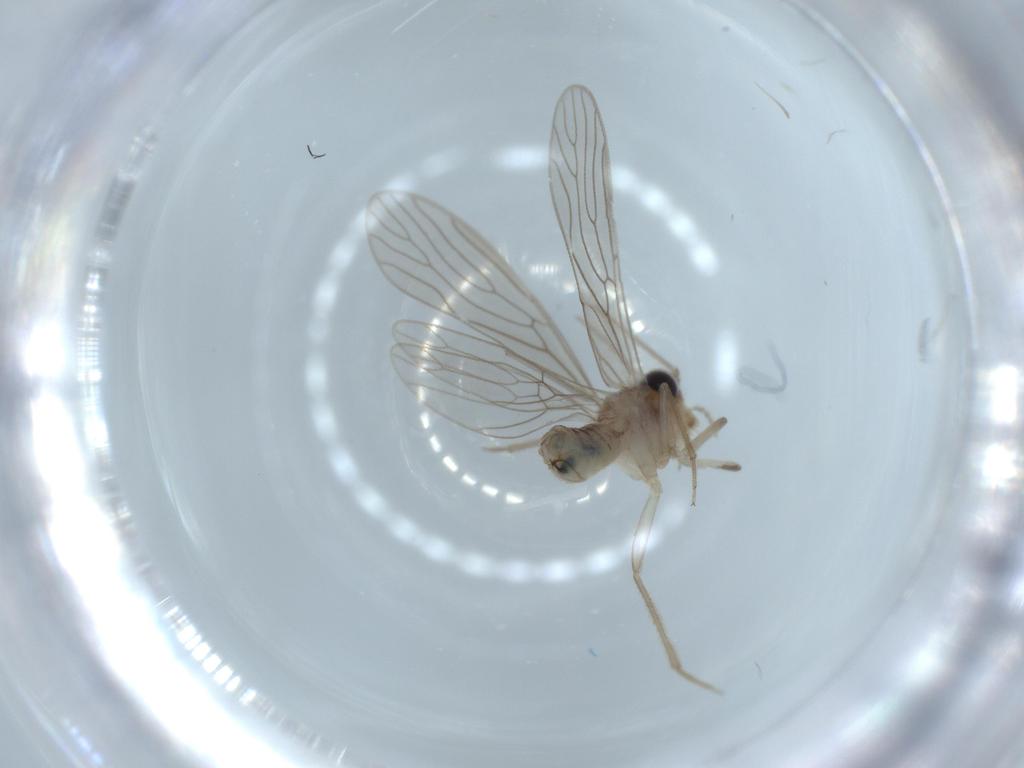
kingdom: Animalia
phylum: Arthropoda
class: Insecta
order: Psocodea
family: Cladiopsocidae
